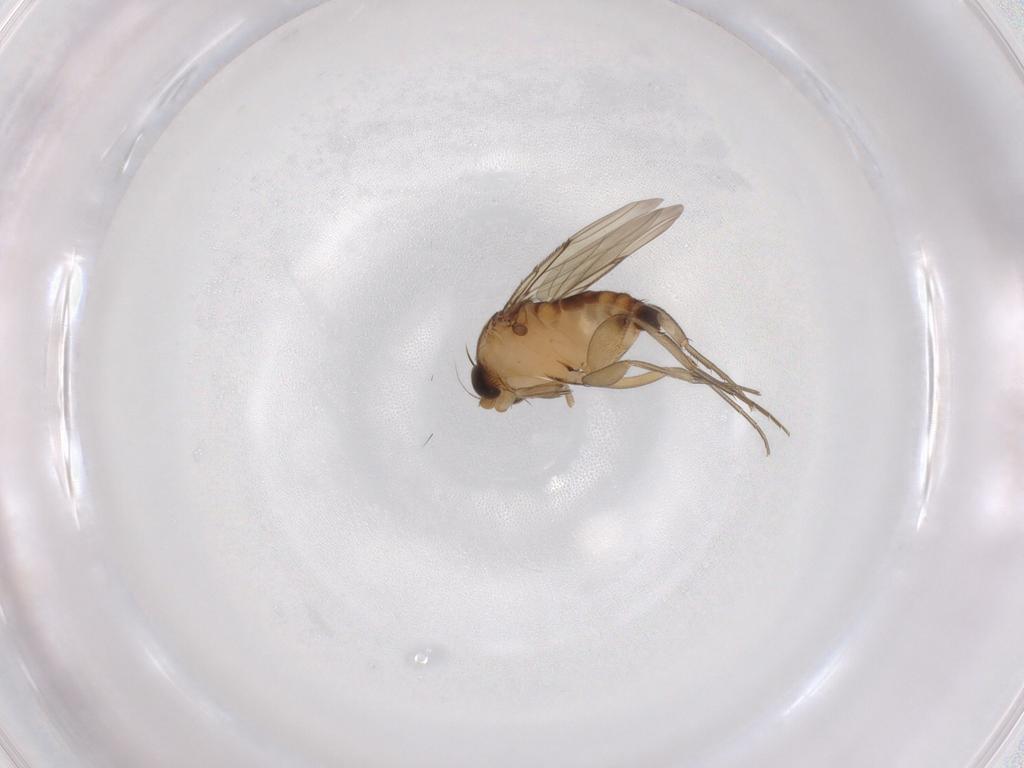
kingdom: Animalia
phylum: Arthropoda
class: Insecta
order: Diptera
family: Phoridae
